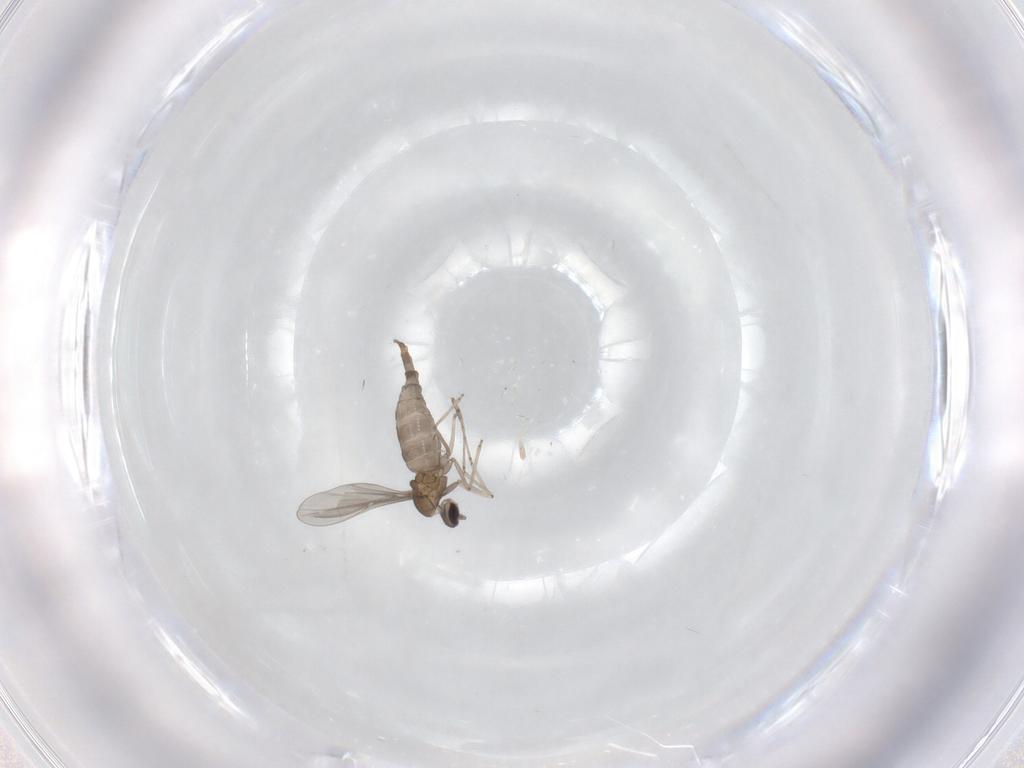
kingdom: Animalia
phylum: Arthropoda
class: Insecta
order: Diptera
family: Cecidomyiidae
